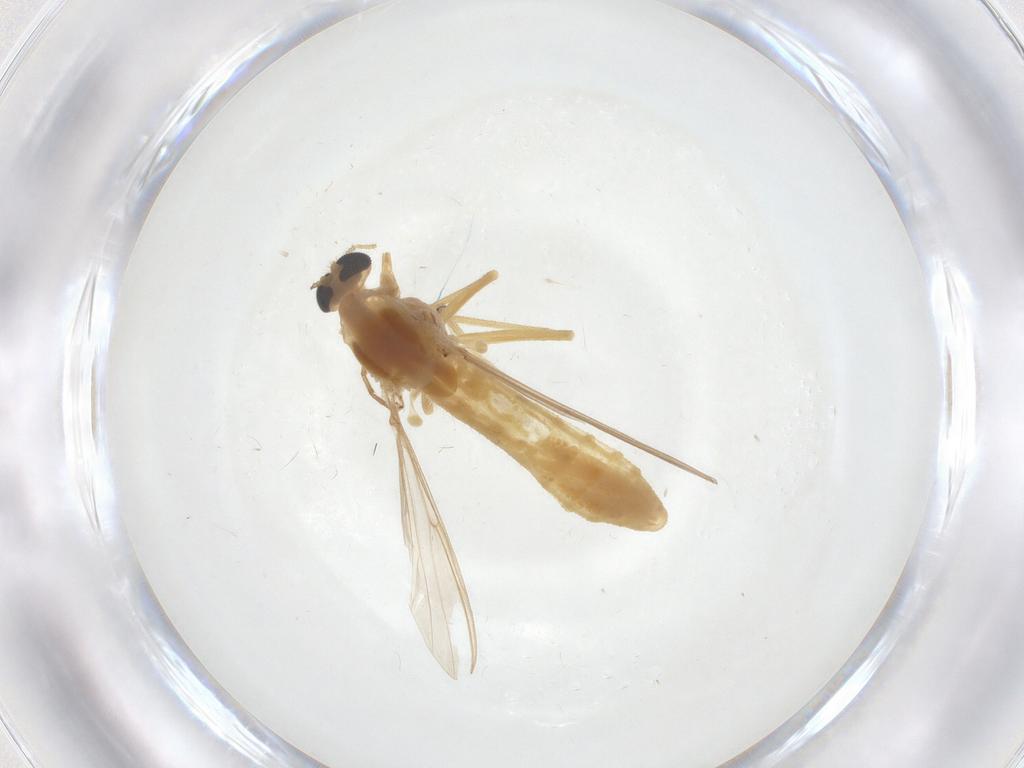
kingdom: Animalia
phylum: Arthropoda
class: Insecta
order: Diptera
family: Chironomidae
